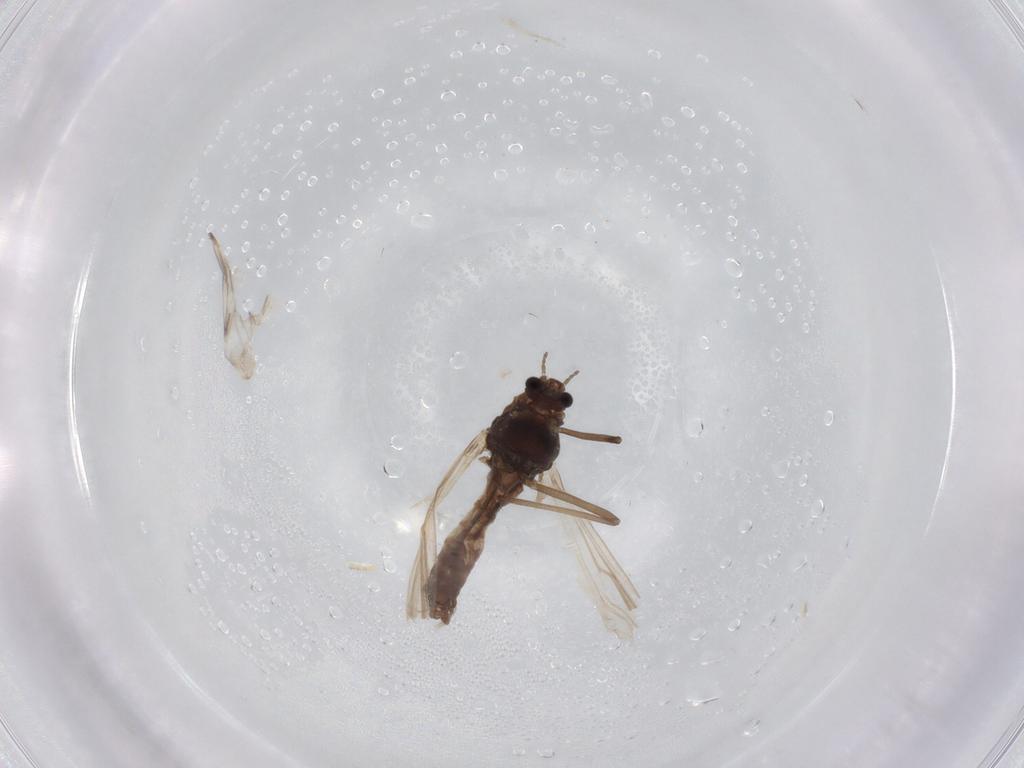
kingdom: Animalia
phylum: Arthropoda
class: Insecta
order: Diptera
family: Chironomidae
